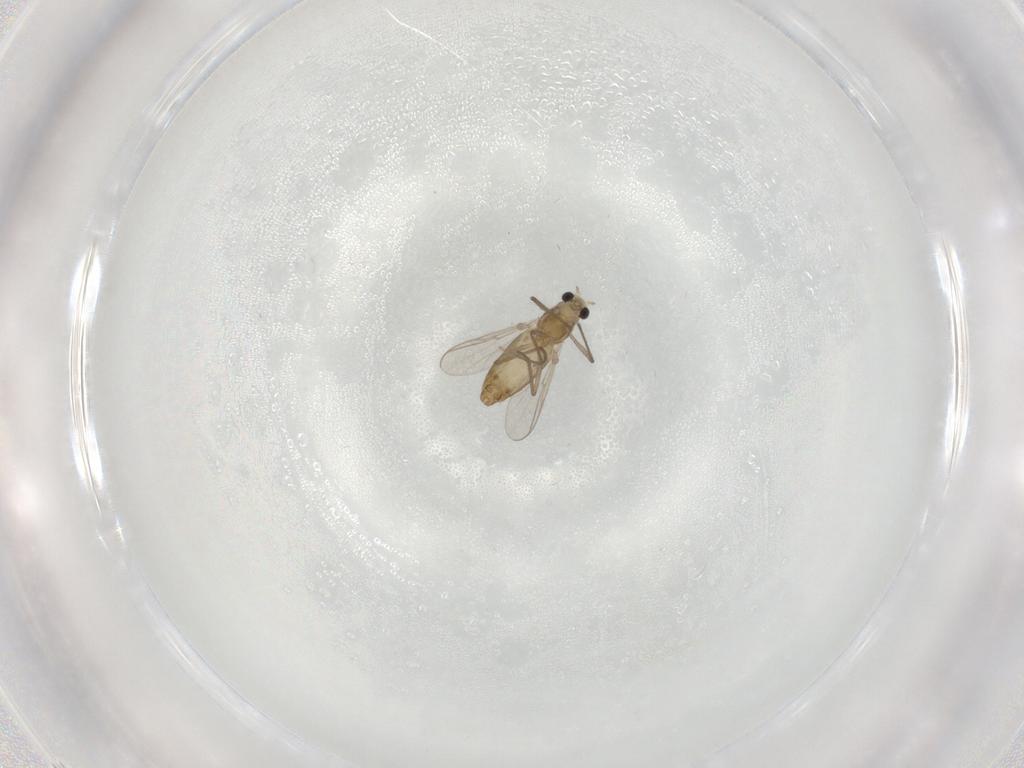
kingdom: Animalia
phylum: Arthropoda
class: Insecta
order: Diptera
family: Chironomidae
